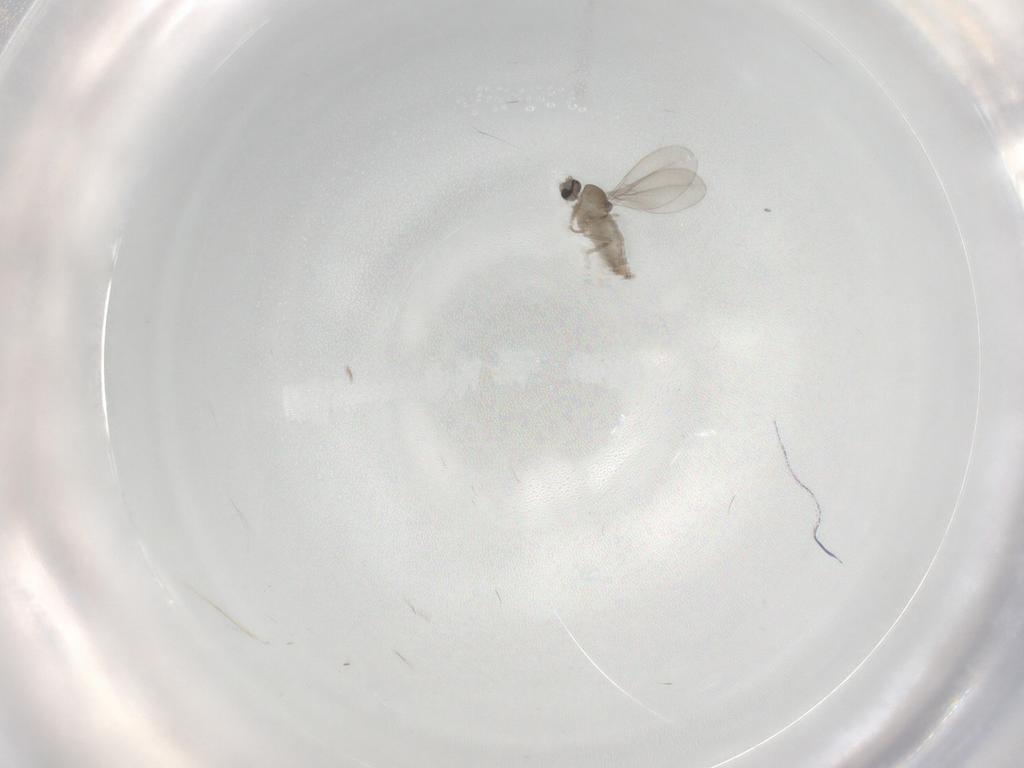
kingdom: Animalia
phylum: Arthropoda
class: Insecta
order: Diptera
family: Cecidomyiidae
